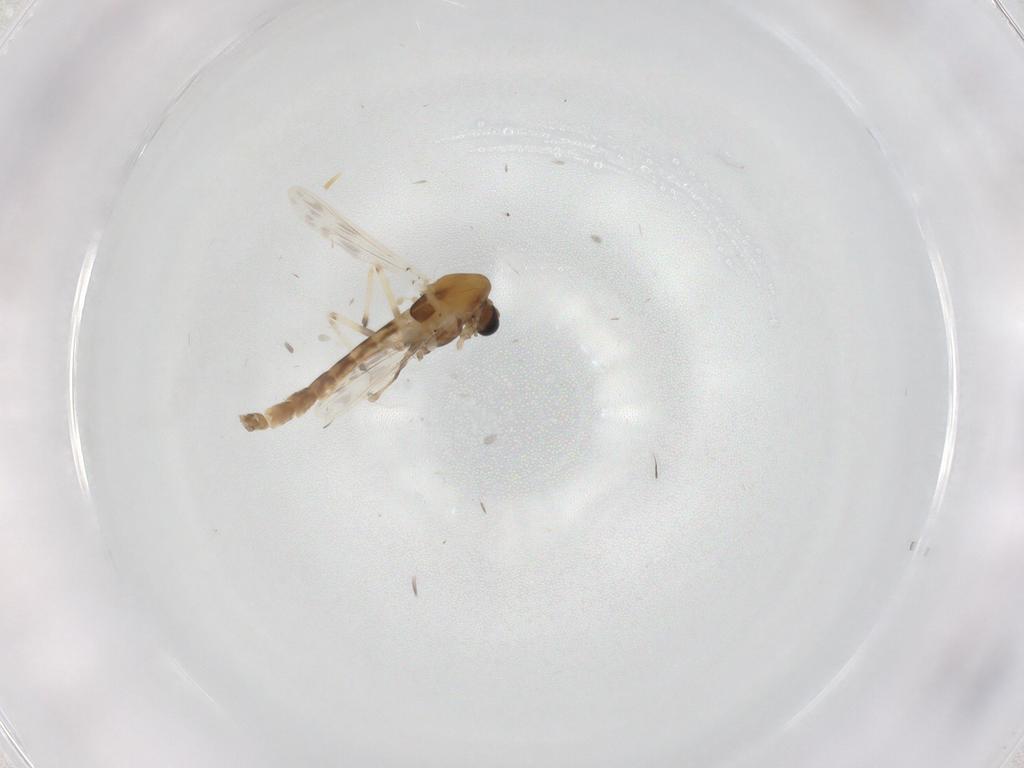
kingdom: Animalia
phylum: Arthropoda
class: Insecta
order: Diptera
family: Cecidomyiidae
